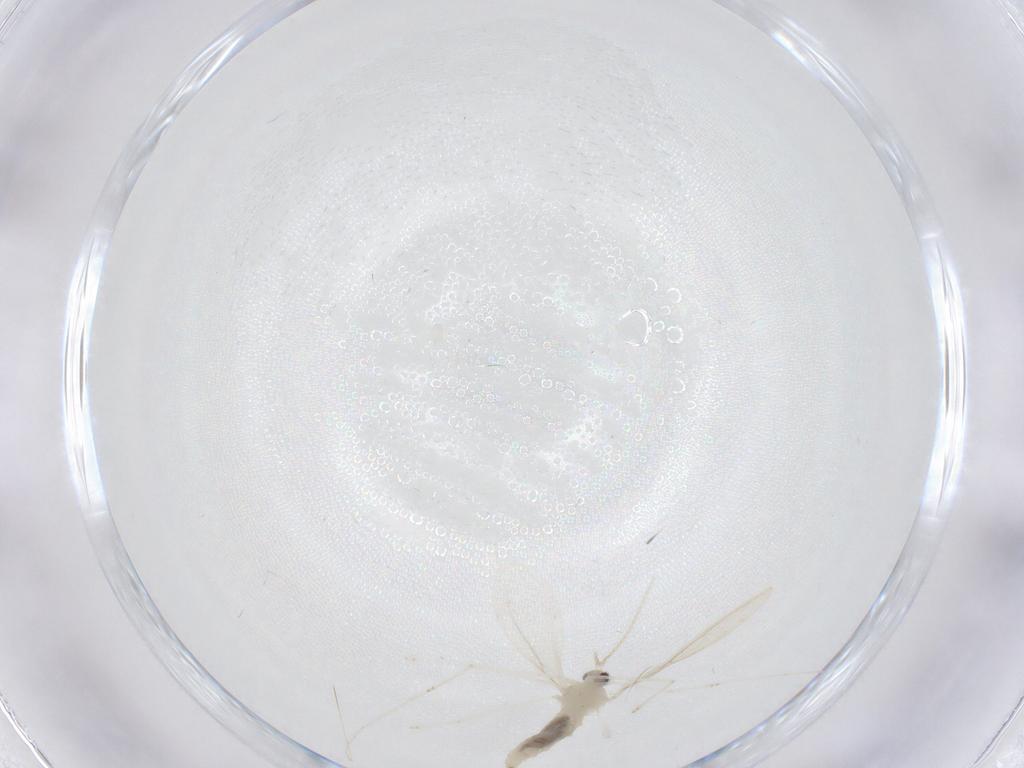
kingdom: Animalia
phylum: Arthropoda
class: Insecta
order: Diptera
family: Cecidomyiidae
